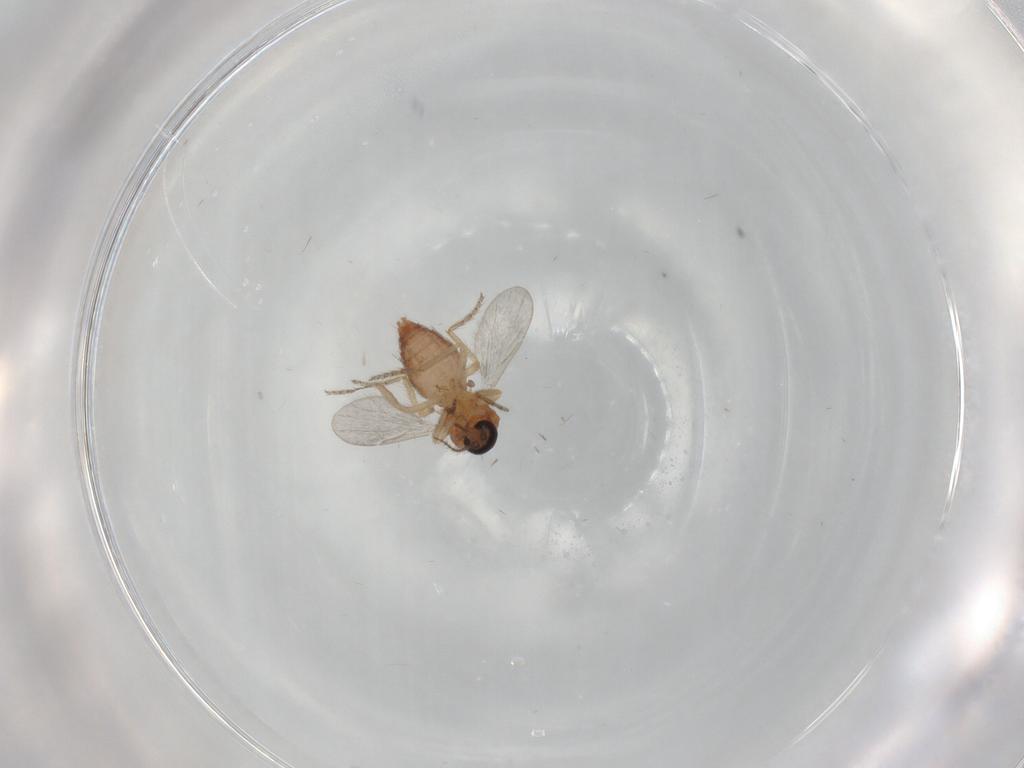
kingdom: Animalia
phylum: Arthropoda
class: Insecta
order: Diptera
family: Ceratopogonidae
